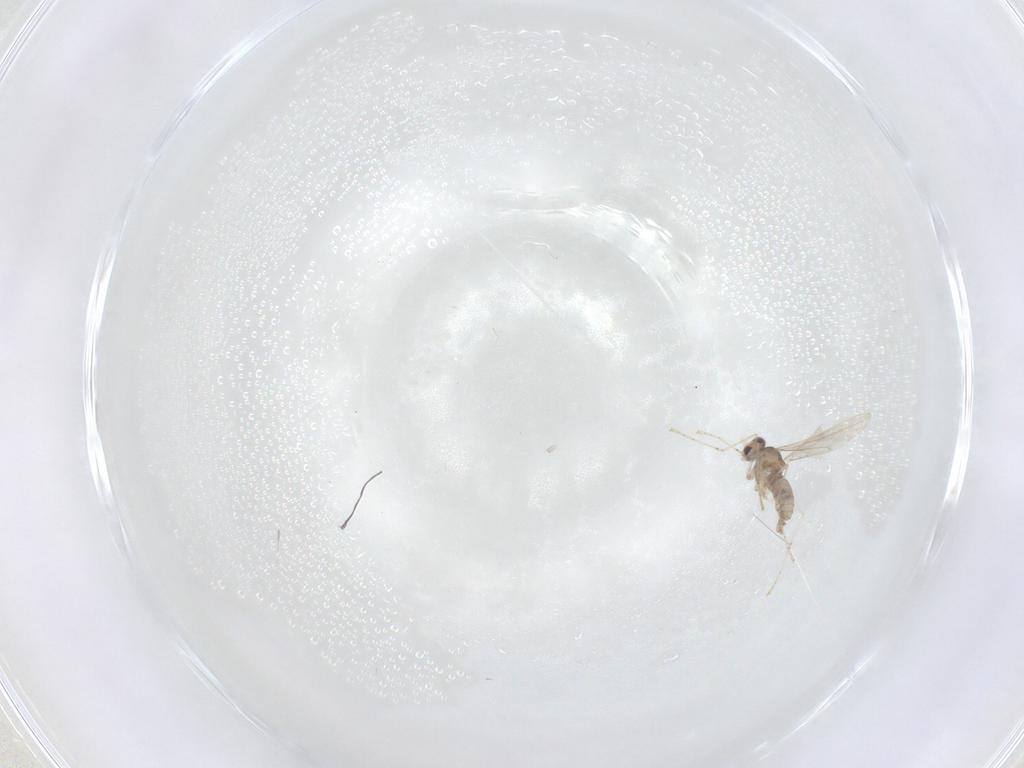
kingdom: Animalia
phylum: Arthropoda
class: Insecta
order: Diptera
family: Cecidomyiidae
